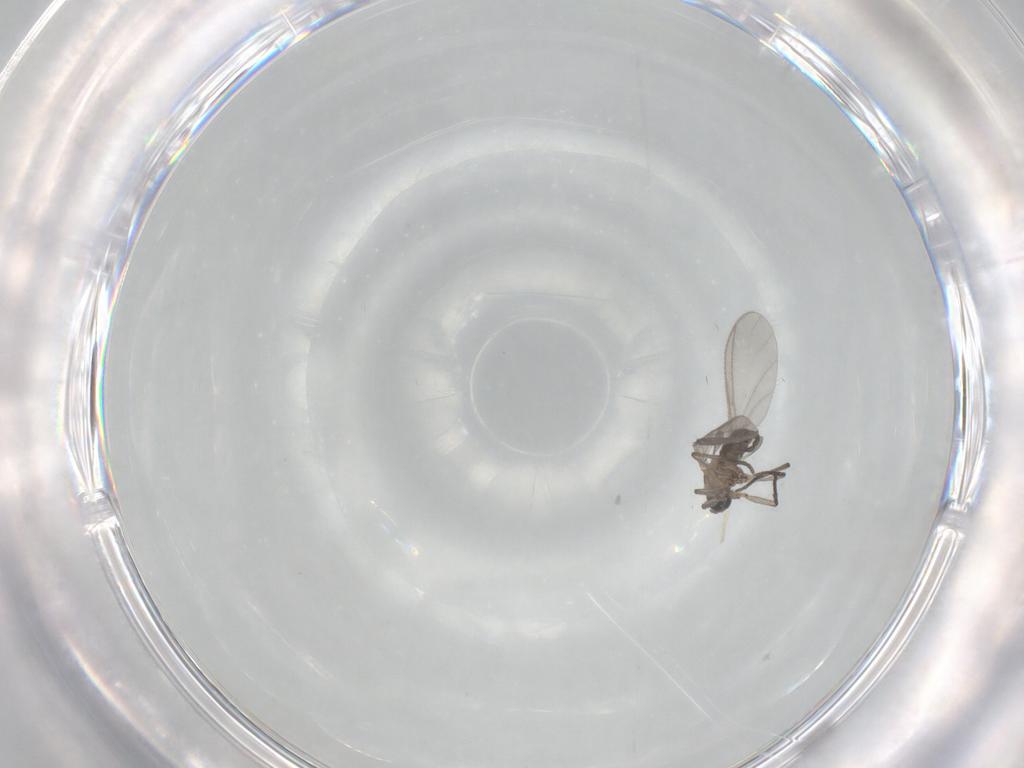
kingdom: Animalia
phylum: Arthropoda
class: Insecta
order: Diptera
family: Sciaridae
